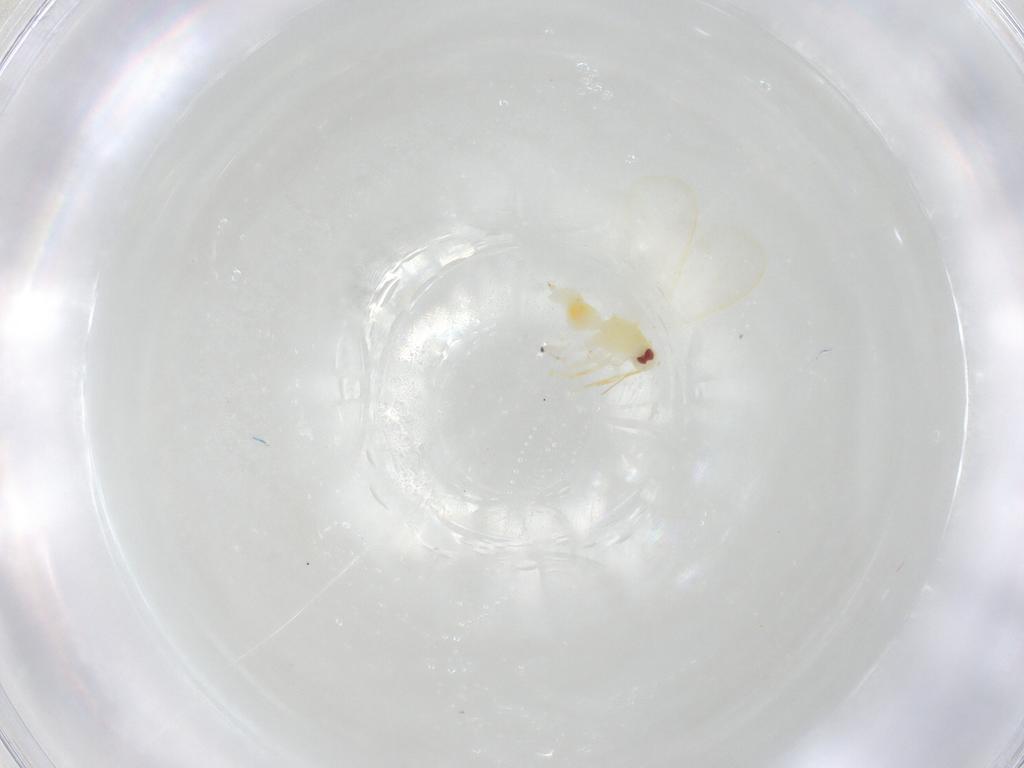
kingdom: Animalia
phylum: Arthropoda
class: Insecta
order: Hemiptera
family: Aleyrodidae
